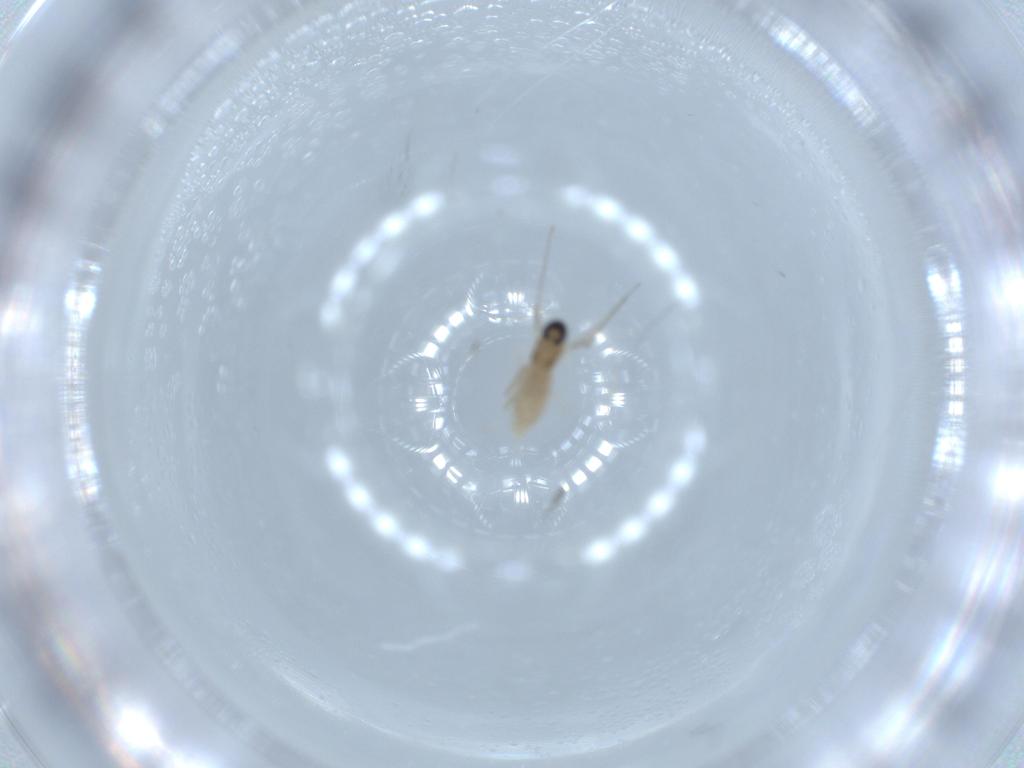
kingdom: Animalia
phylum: Arthropoda
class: Insecta
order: Diptera
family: Cecidomyiidae
